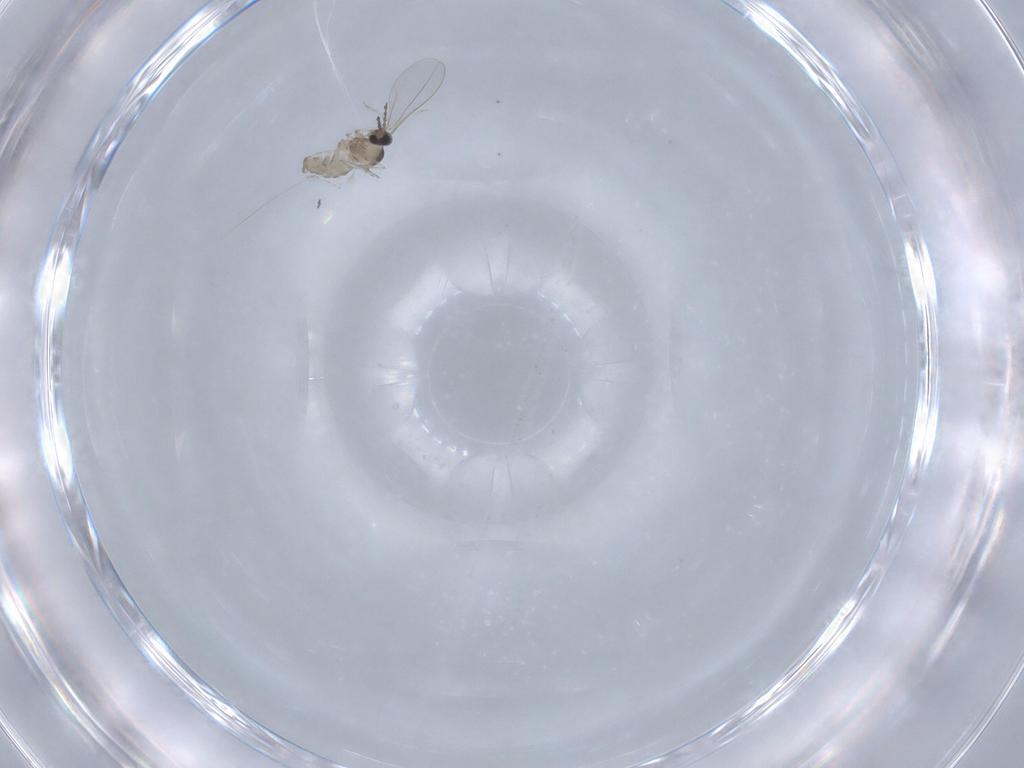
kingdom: Animalia
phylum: Arthropoda
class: Insecta
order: Diptera
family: Cecidomyiidae
